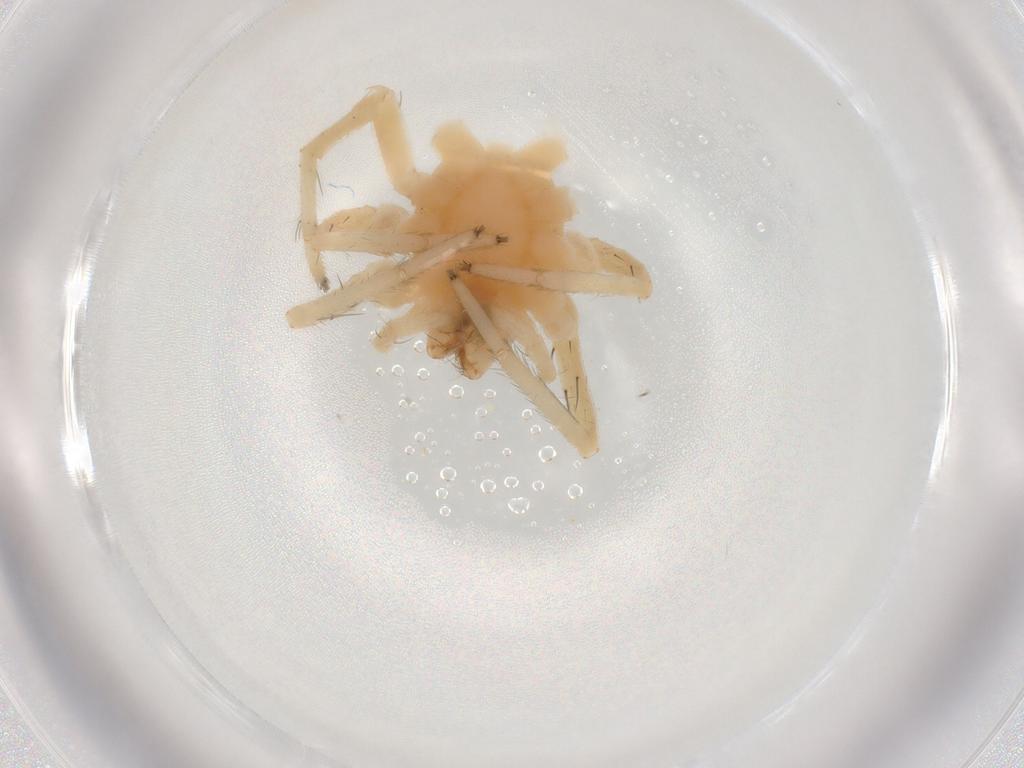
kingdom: Animalia
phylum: Arthropoda
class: Arachnida
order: Araneae
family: Anyphaenidae
